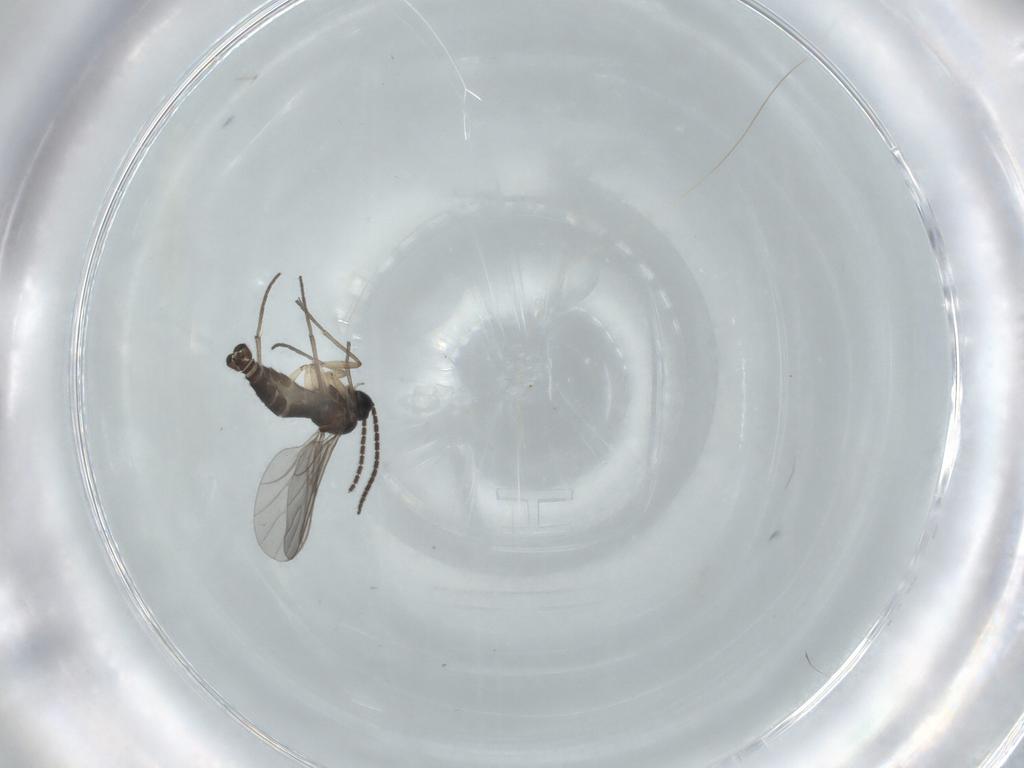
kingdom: Animalia
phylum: Arthropoda
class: Insecta
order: Diptera
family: Sciaridae
